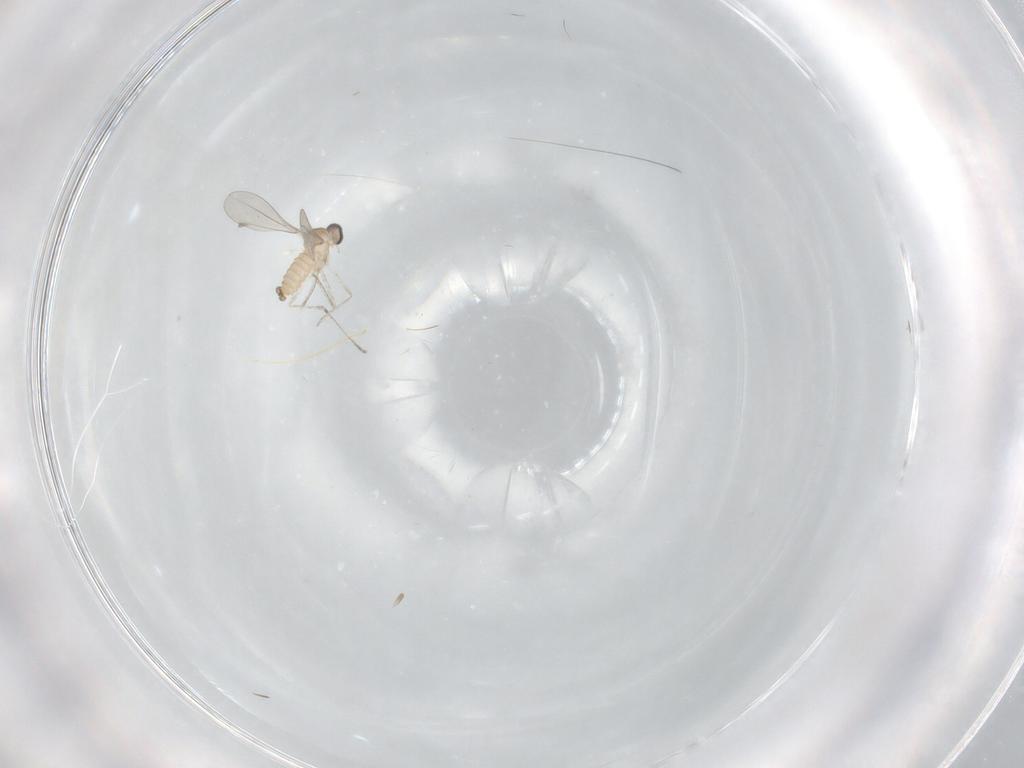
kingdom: Animalia
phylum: Arthropoda
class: Insecta
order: Diptera
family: Cecidomyiidae
